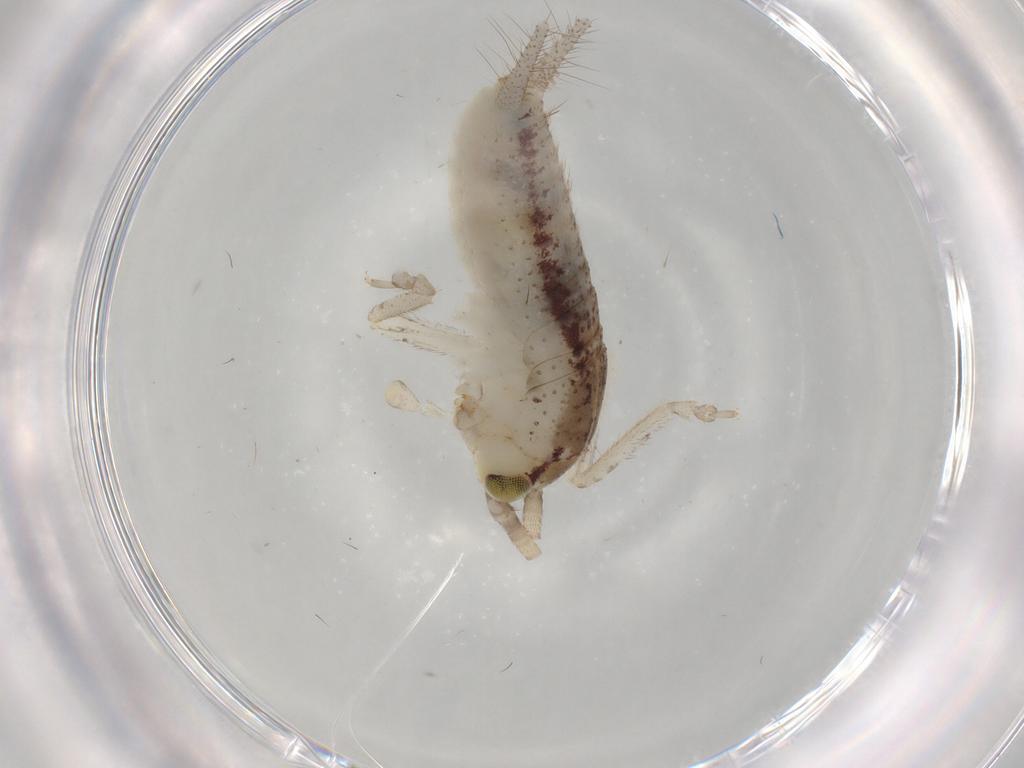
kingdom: Animalia
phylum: Arthropoda
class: Insecta
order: Orthoptera
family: Gryllidae
